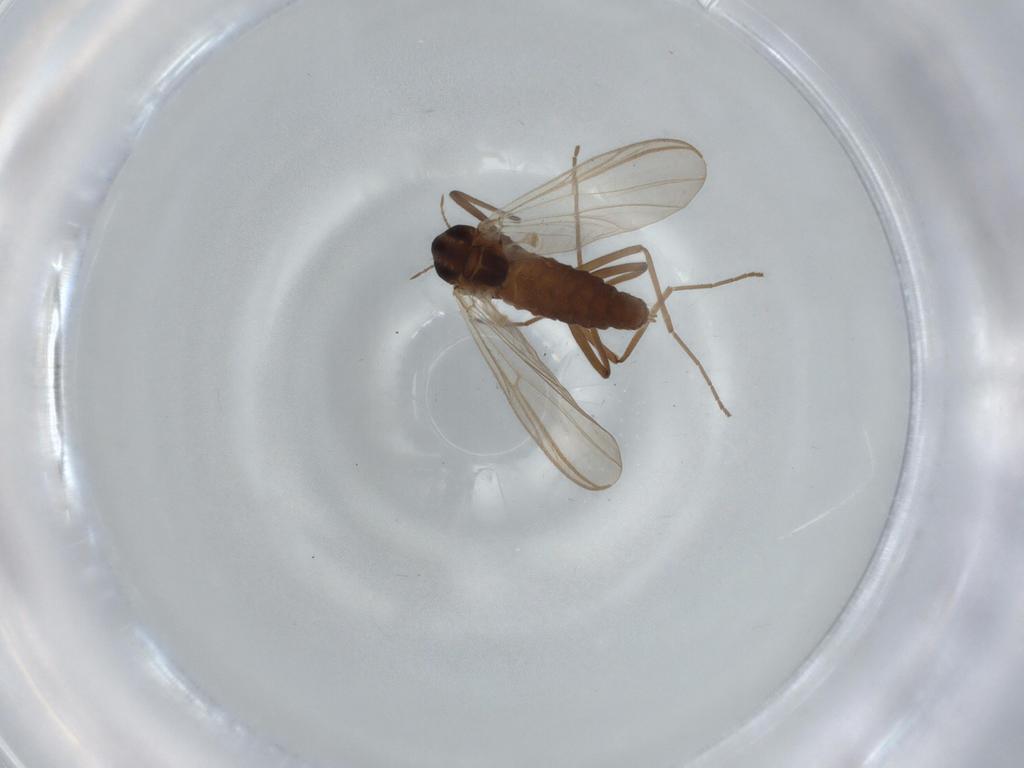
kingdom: Animalia
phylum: Arthropoda
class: Insecta
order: Diptera
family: Chironomidae
